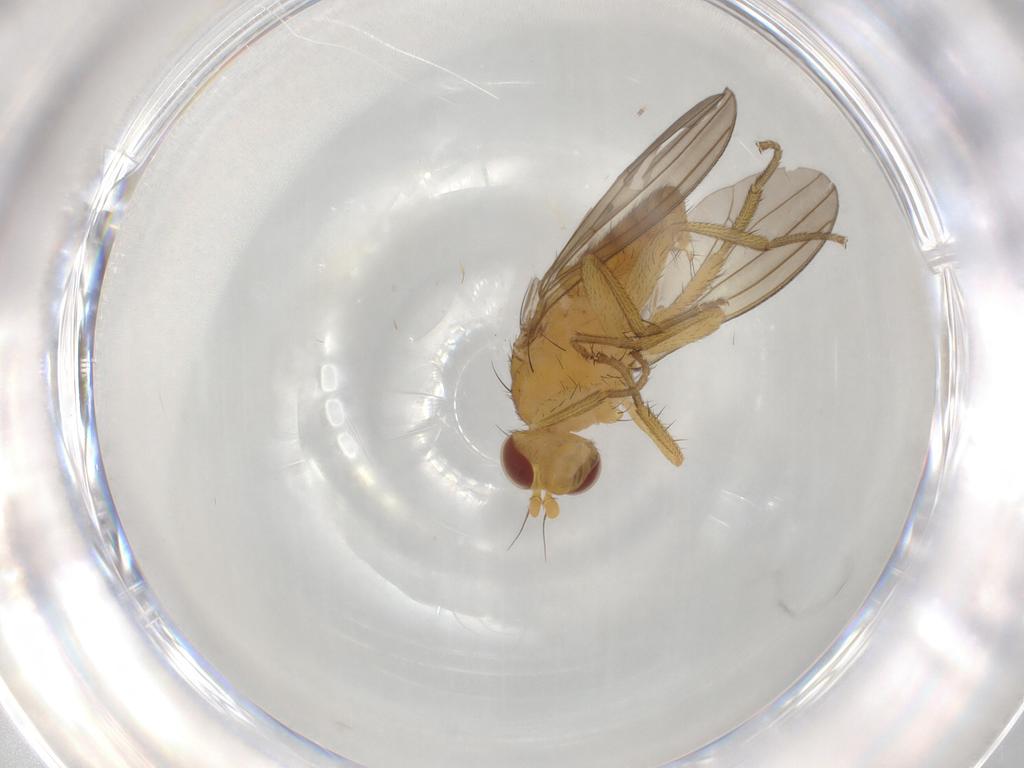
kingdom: Animalia
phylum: Arthropoda
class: Insecta
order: Diptera
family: Lauxaniidae
